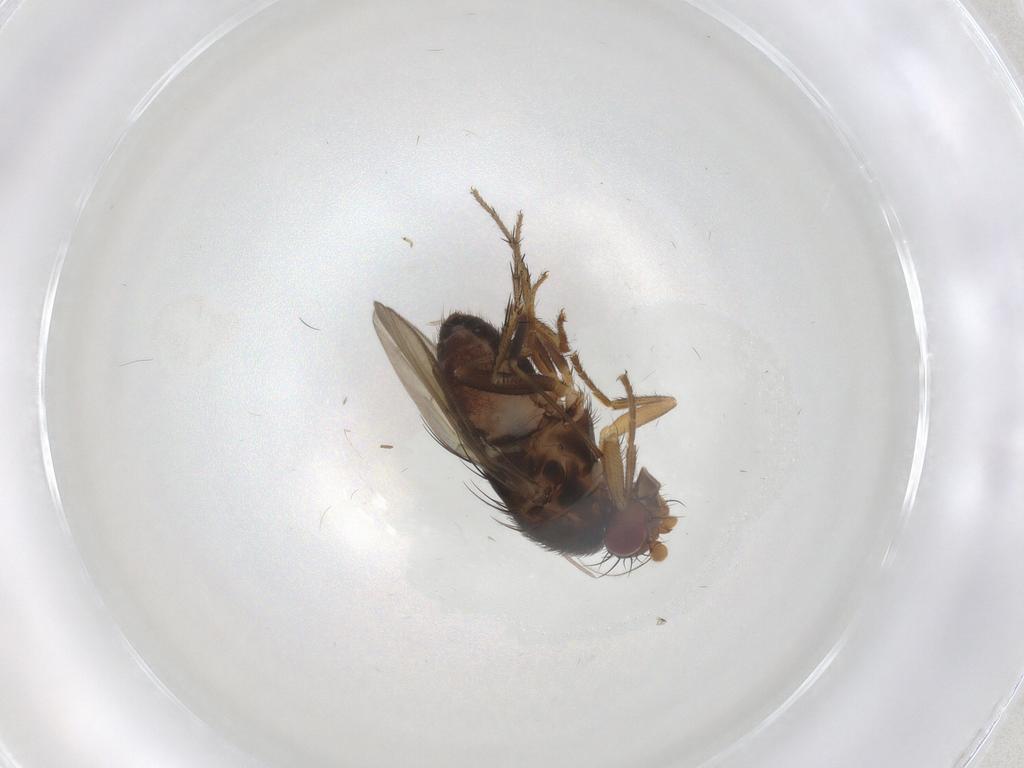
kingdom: Animalia
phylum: Arthropoda
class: Insecta
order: Diptera
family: Sphaeroceridae
